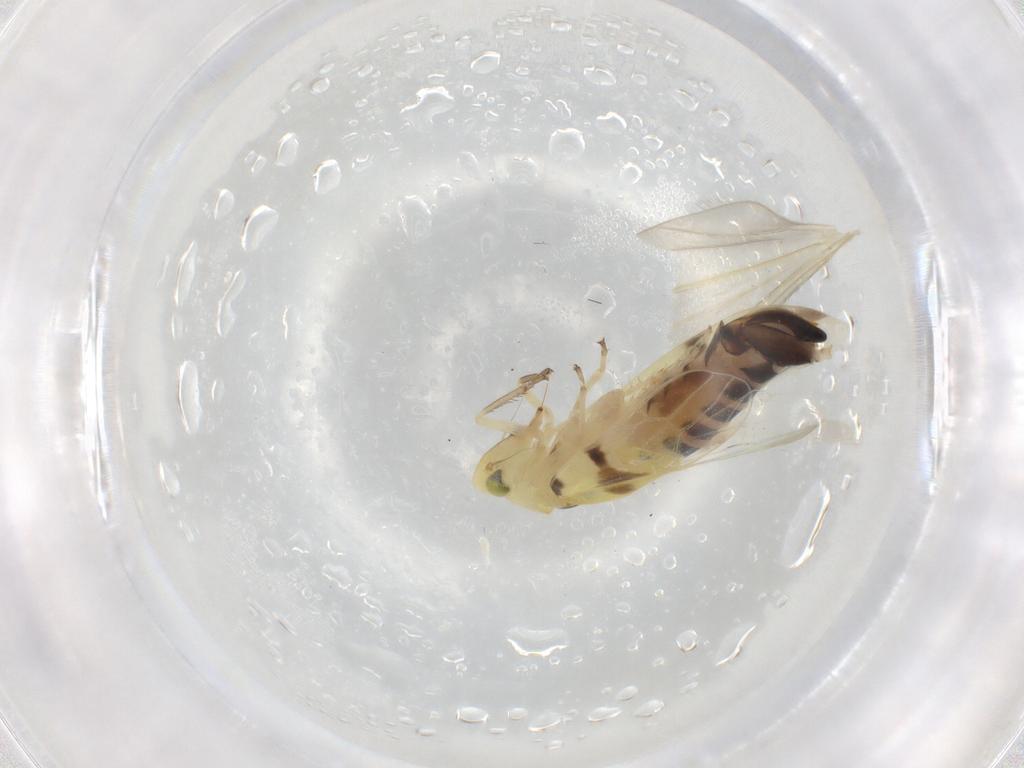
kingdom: Animalia
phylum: Arthropoda
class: Insecta
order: Hemiptera
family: Cicadellidae
